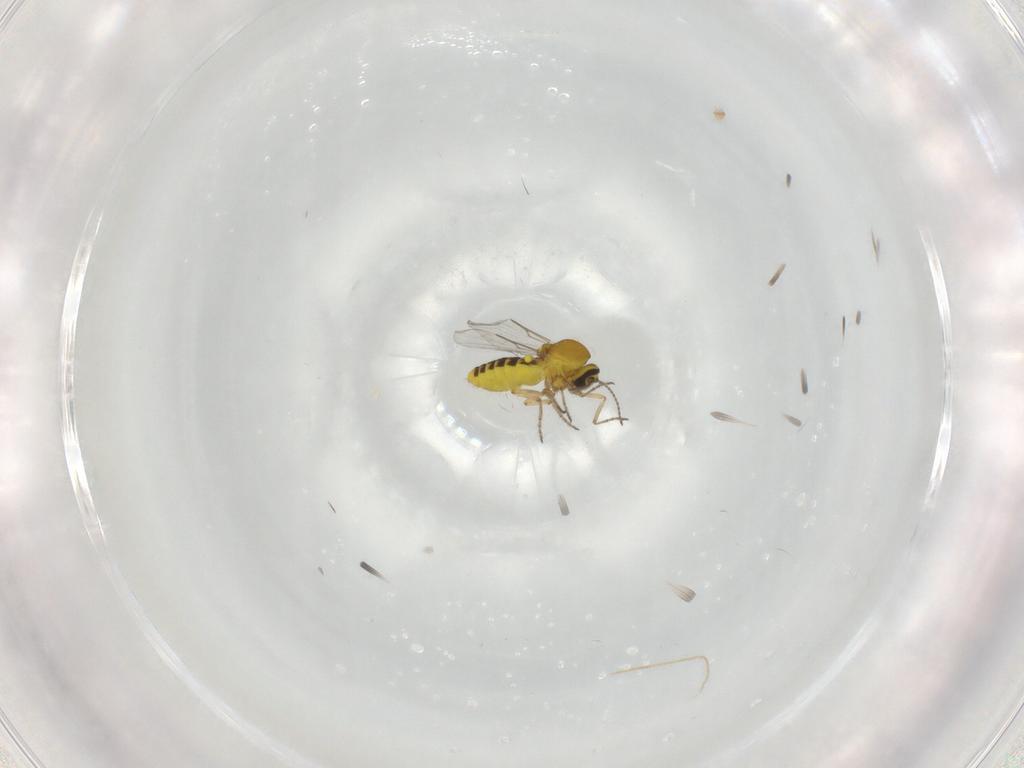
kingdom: Animalia
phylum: Arthropoda
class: Insecta
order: Diptera
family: Ceratopogonidae
